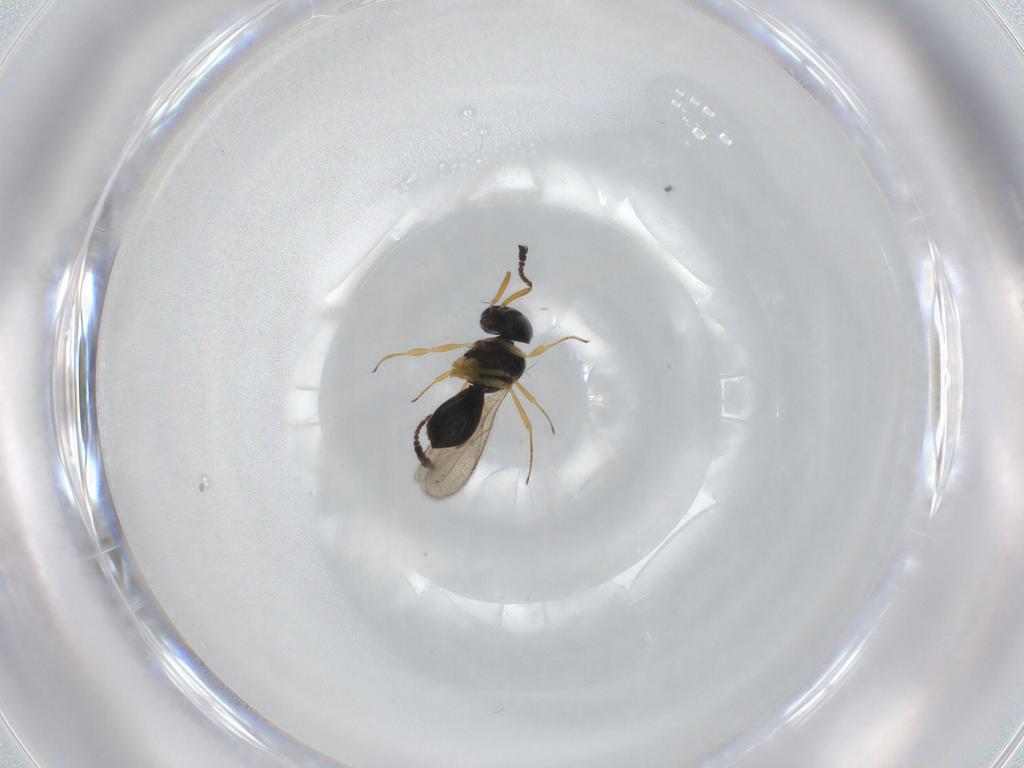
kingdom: Animalia
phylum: Arthropoda
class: Insecta
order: Hymenoptera
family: Scelionidae
